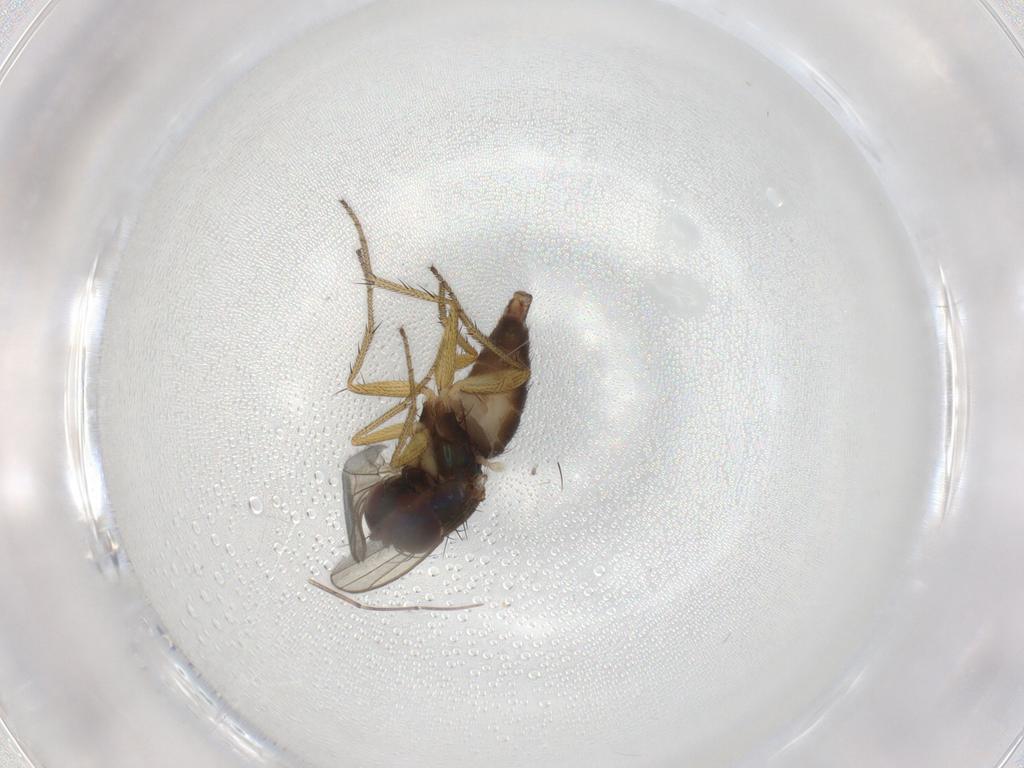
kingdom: Animalia
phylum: Arthropoda
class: Insecta
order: Diptera
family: Dolichopodidae
